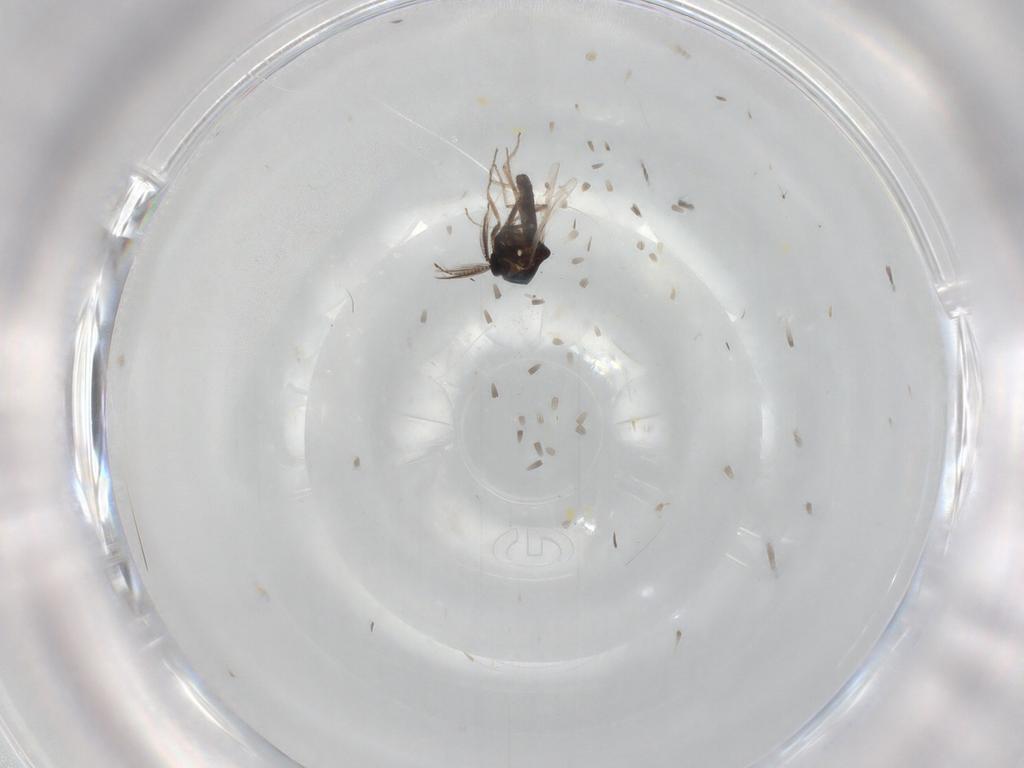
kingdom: Animalia
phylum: Arthropoda
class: Insecta
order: Diptera
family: Ceratopogonidae
